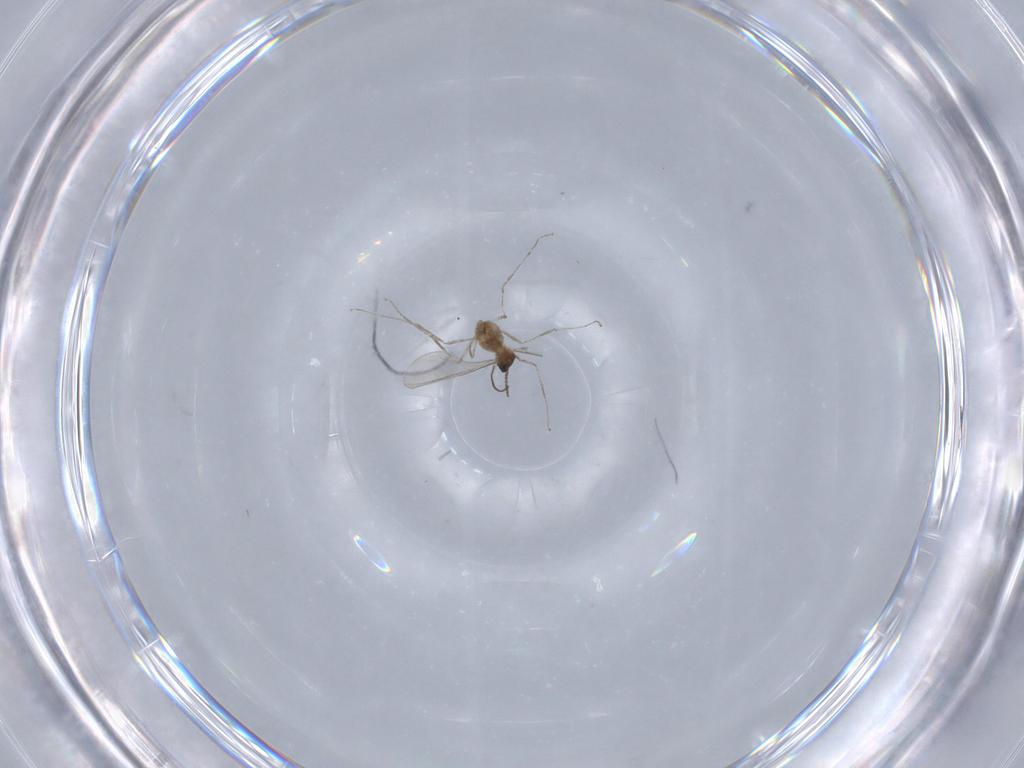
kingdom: Animalia
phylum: Arthropoda
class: Insecta
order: Diptera
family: Cecidomyiidae
